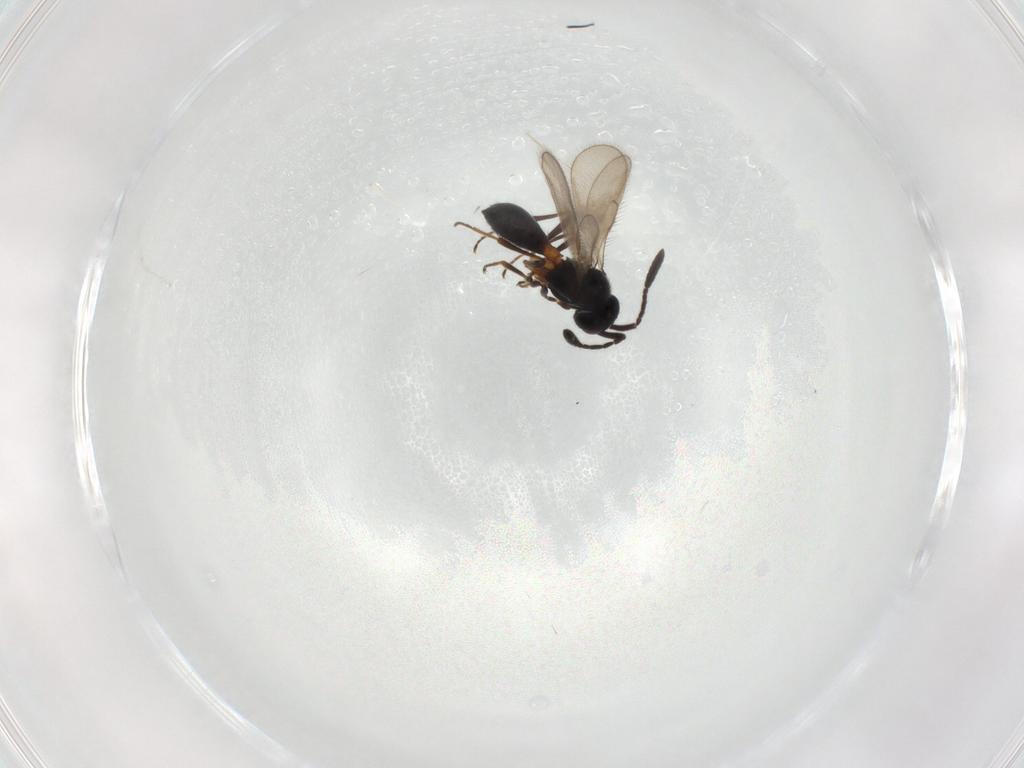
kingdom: Animalia
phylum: Arthropoda
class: Insecta
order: Hymenoptera
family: Scelionidae
